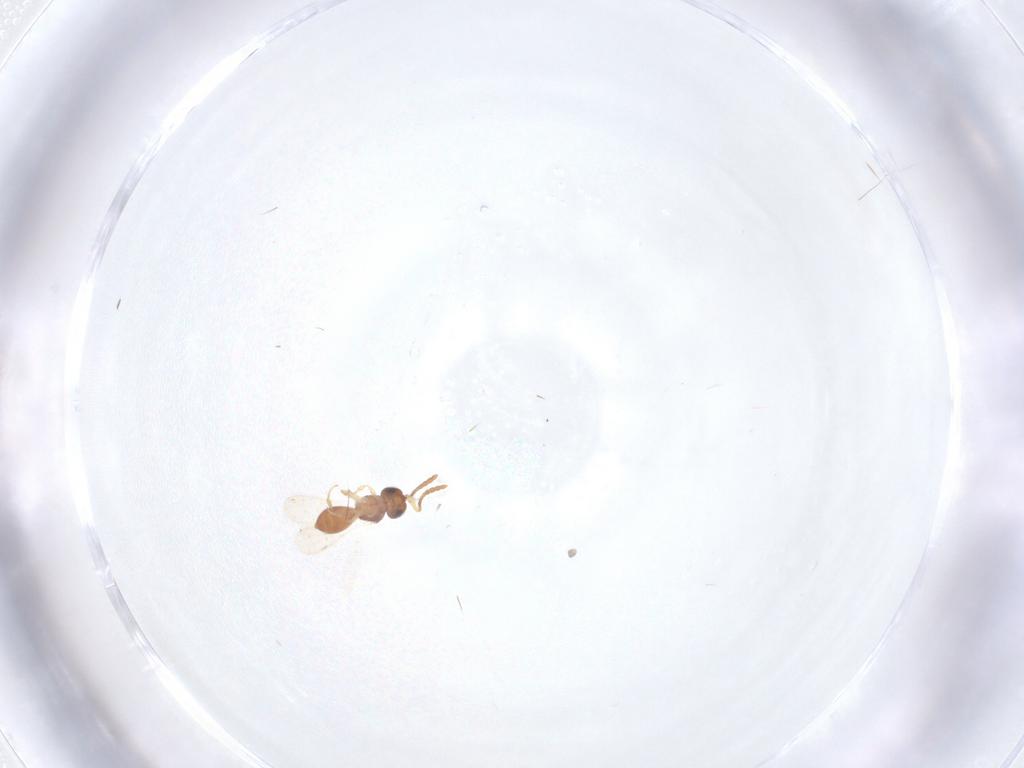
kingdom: Animalia
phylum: Arthropoda
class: Insecta
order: Hymenoptera
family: Scelionidae
